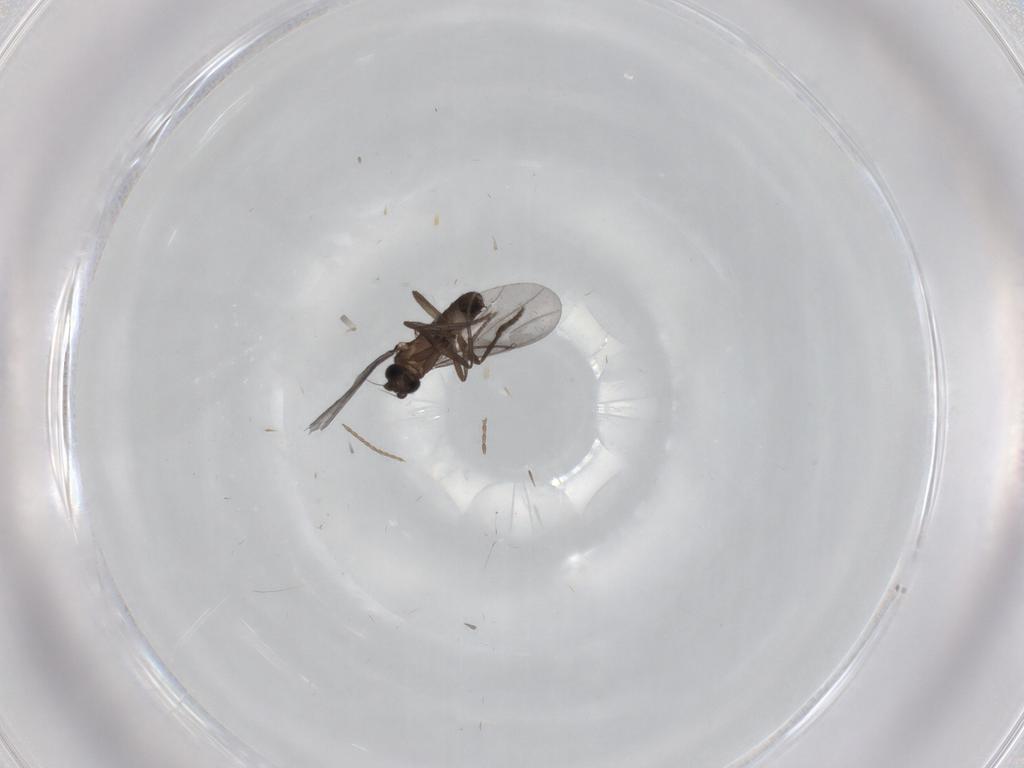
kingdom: Animalia
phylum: Arthropoda
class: Insecta
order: Diptera
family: Phoridae
